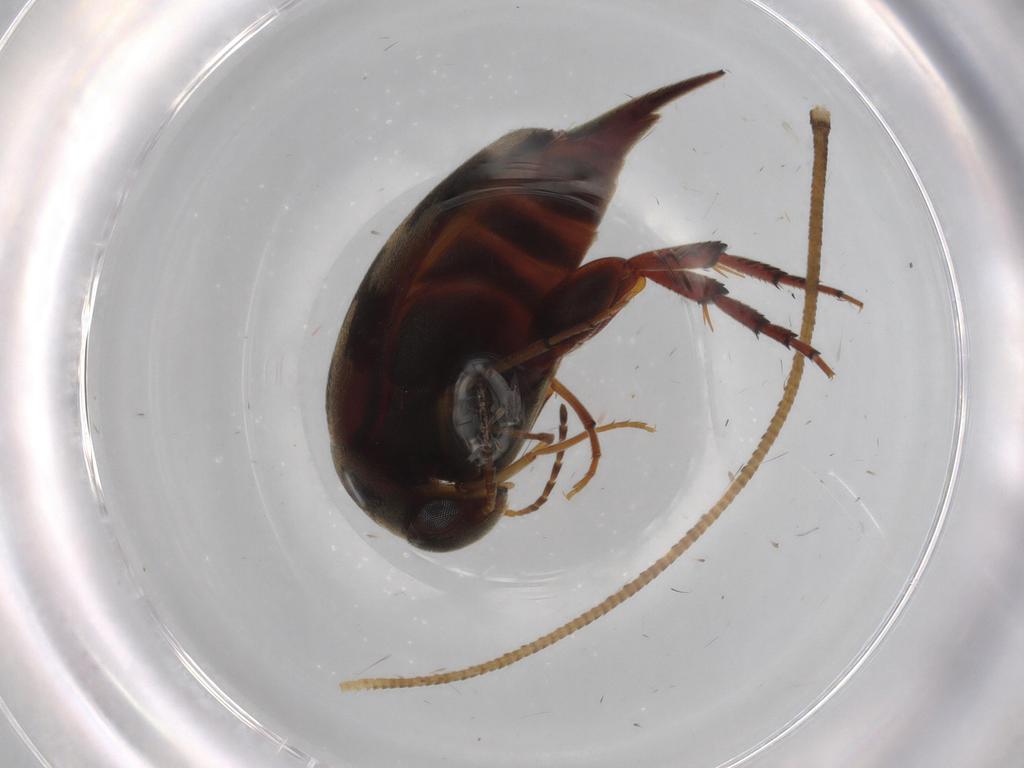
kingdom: Animalia
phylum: Arthropoda
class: Insecta
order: Coleoptera
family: Mordellidae
